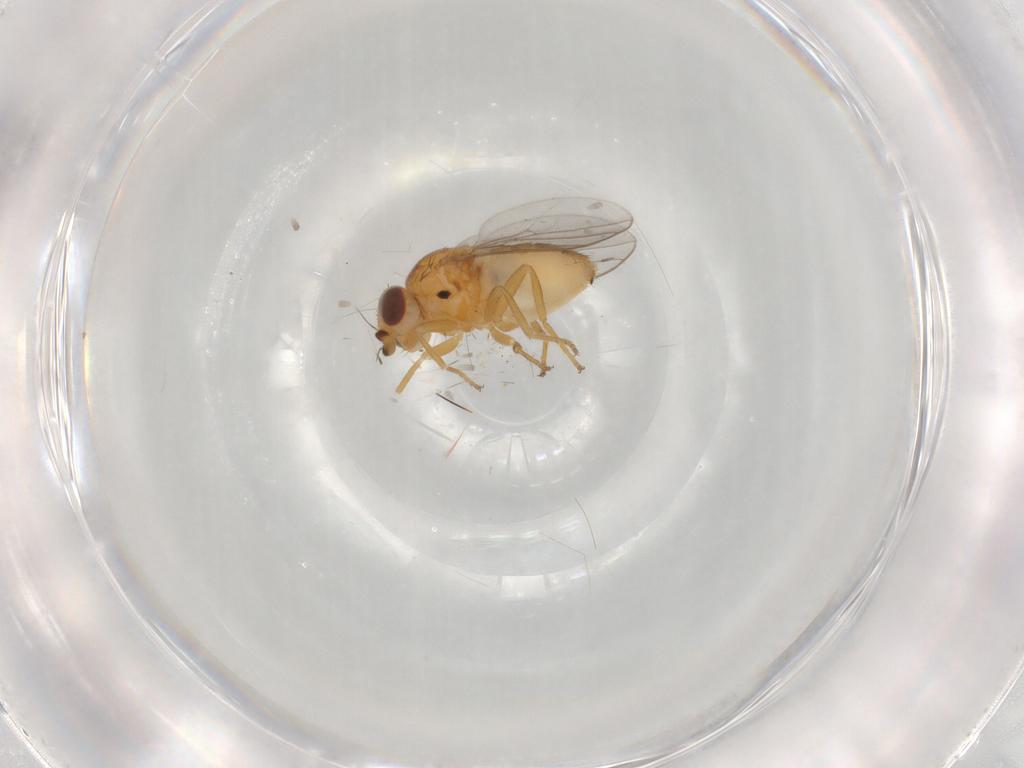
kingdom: Animalia
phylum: Arthropoda
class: Insecta
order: Diptera
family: Chloropidae
